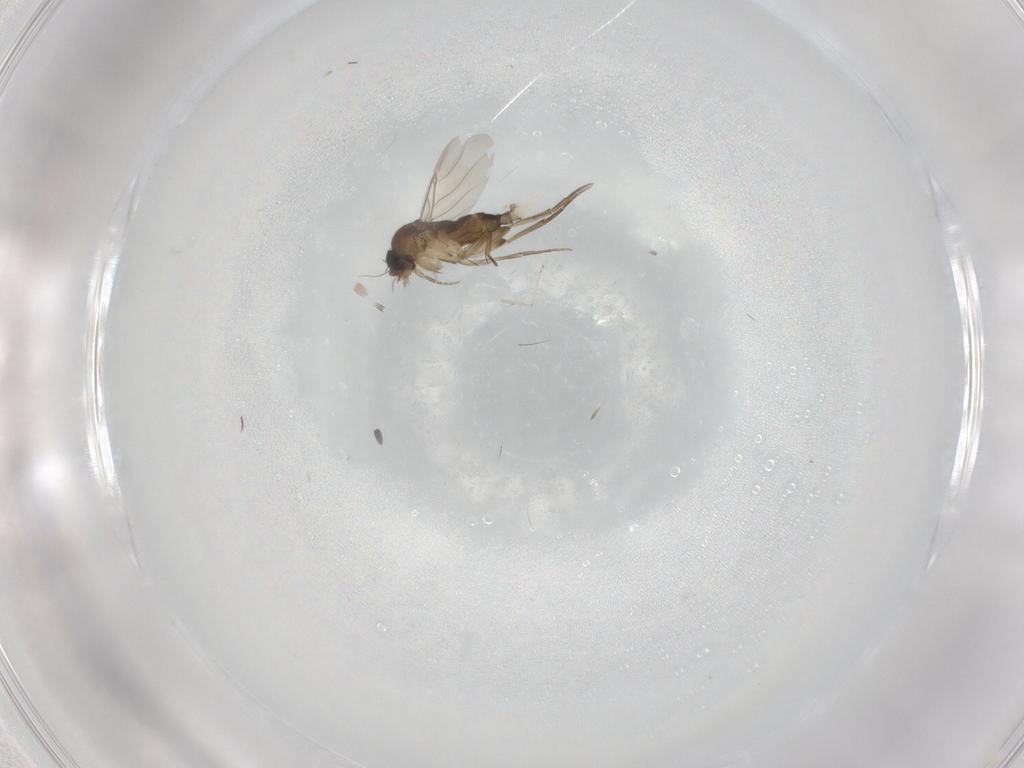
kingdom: Animalia
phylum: Arthropoda
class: Insecta
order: Diptera
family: Phoridae
